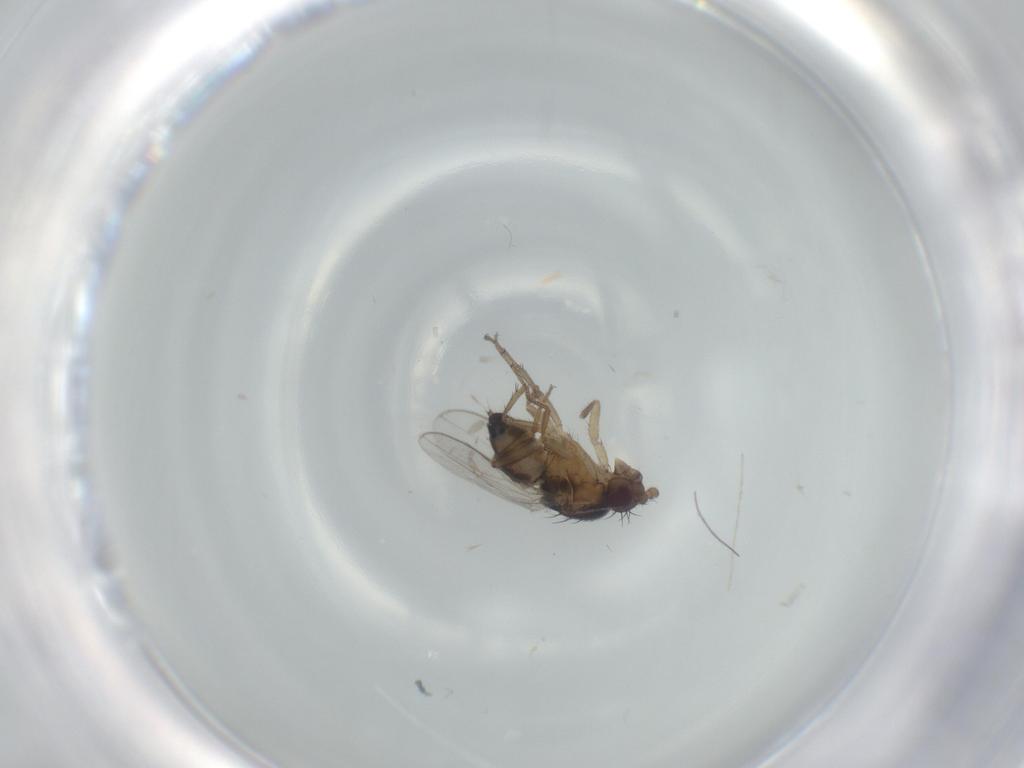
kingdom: Animalia
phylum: Arthropoda
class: Insecta
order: Diptera
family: Sphaeroceridae
